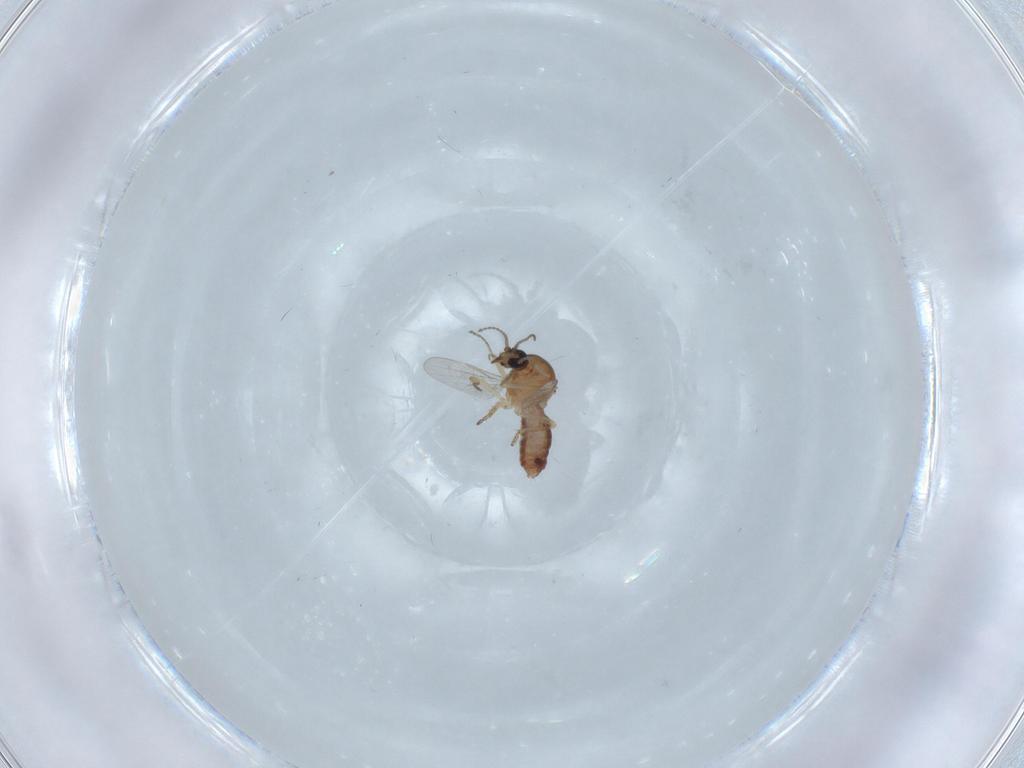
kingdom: Animalia
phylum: Arthropoda
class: Insecta
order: Diptera
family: Ceratopogonidae
